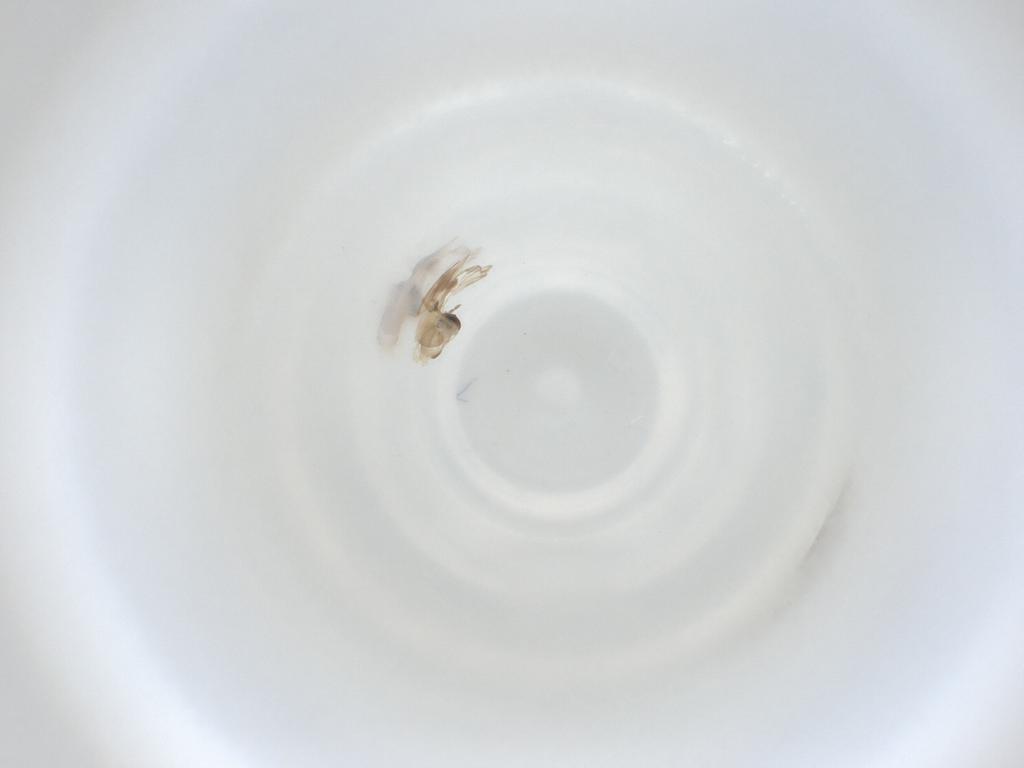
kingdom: Animalia
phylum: Arthropoda
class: Insecta
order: Diptera
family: Cecidomyiidae
